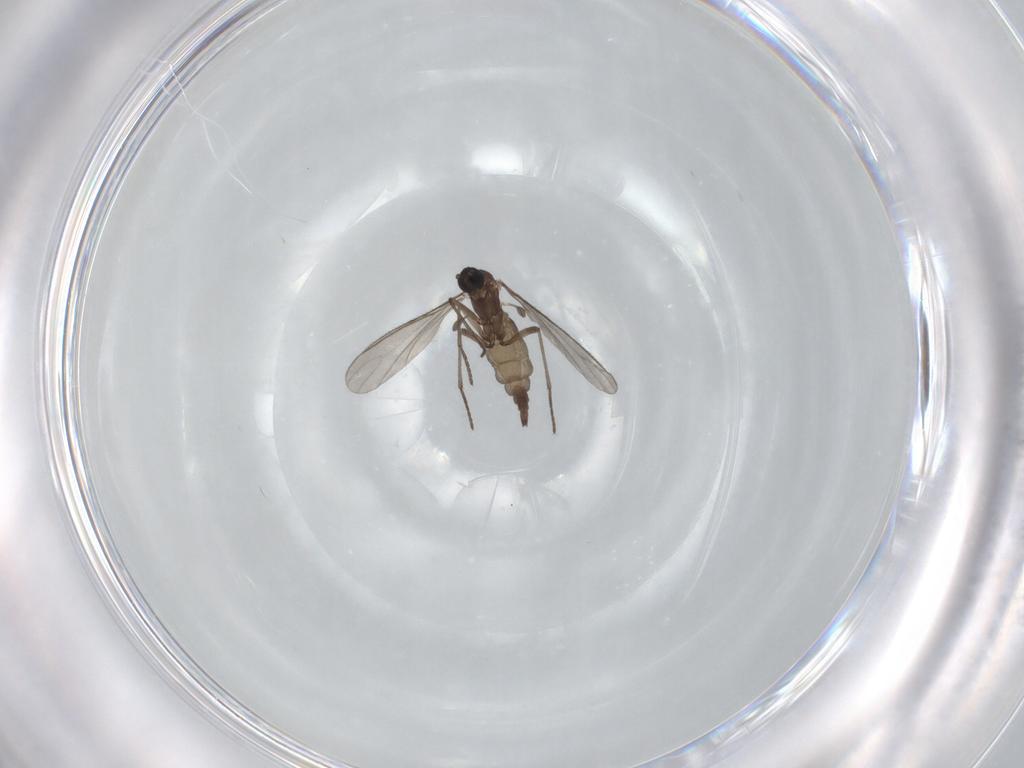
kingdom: Animalia
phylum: Arthropoda
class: Insecta
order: Diptera
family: Sciaridae
